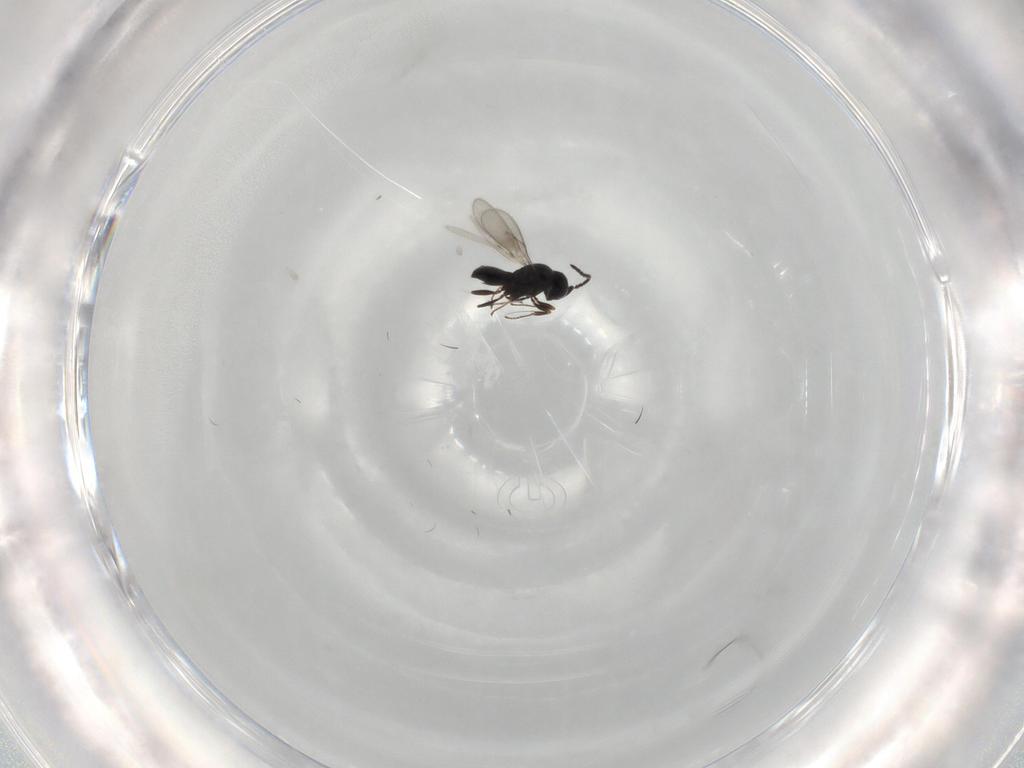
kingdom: Animalia
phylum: Arthropoda
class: Insecta
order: Hymenoptera
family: Scelionidae
